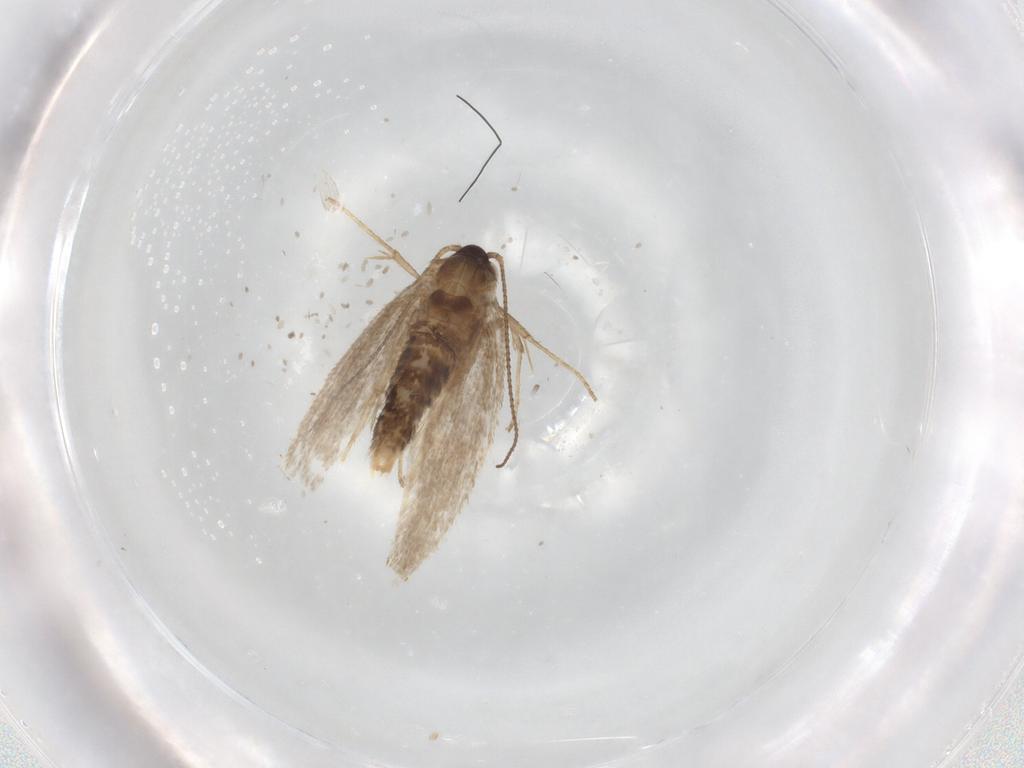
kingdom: Animalia
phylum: Arthropoda
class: Insecta
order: Lepidoptera
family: Nepticulidae
